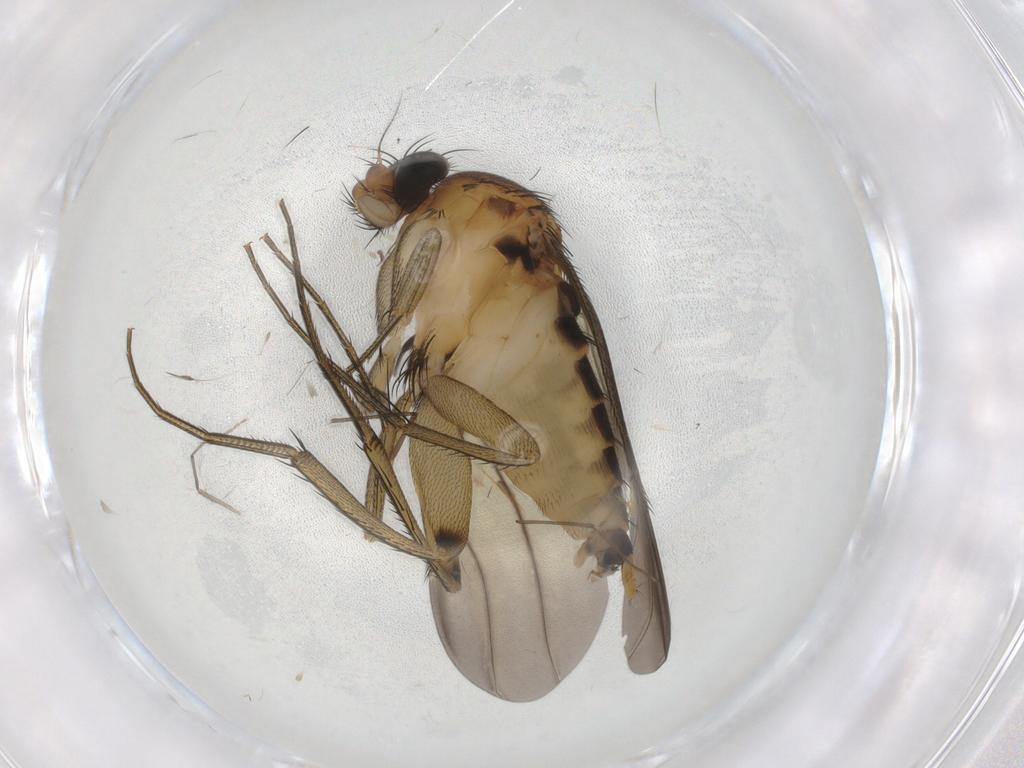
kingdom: Animalia
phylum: Arthropoda
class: Insecta
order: Diptera
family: Phoridae
